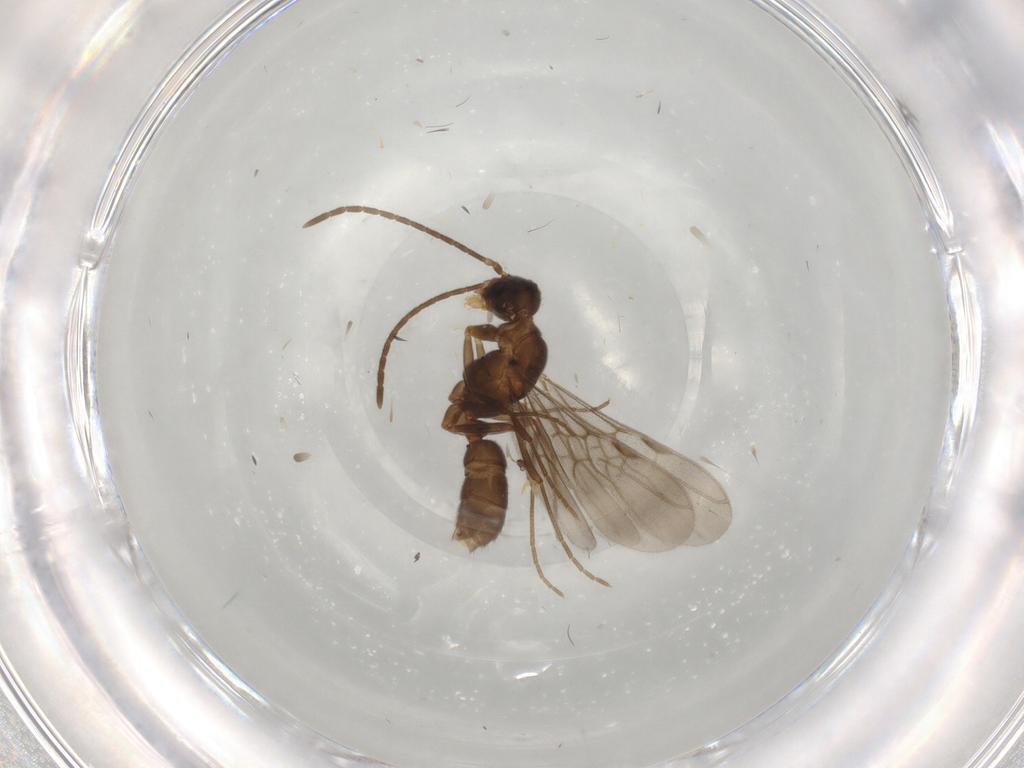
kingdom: Animalia
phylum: Arthropoda
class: Insecta
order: Hymenoptera
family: Formicidae
